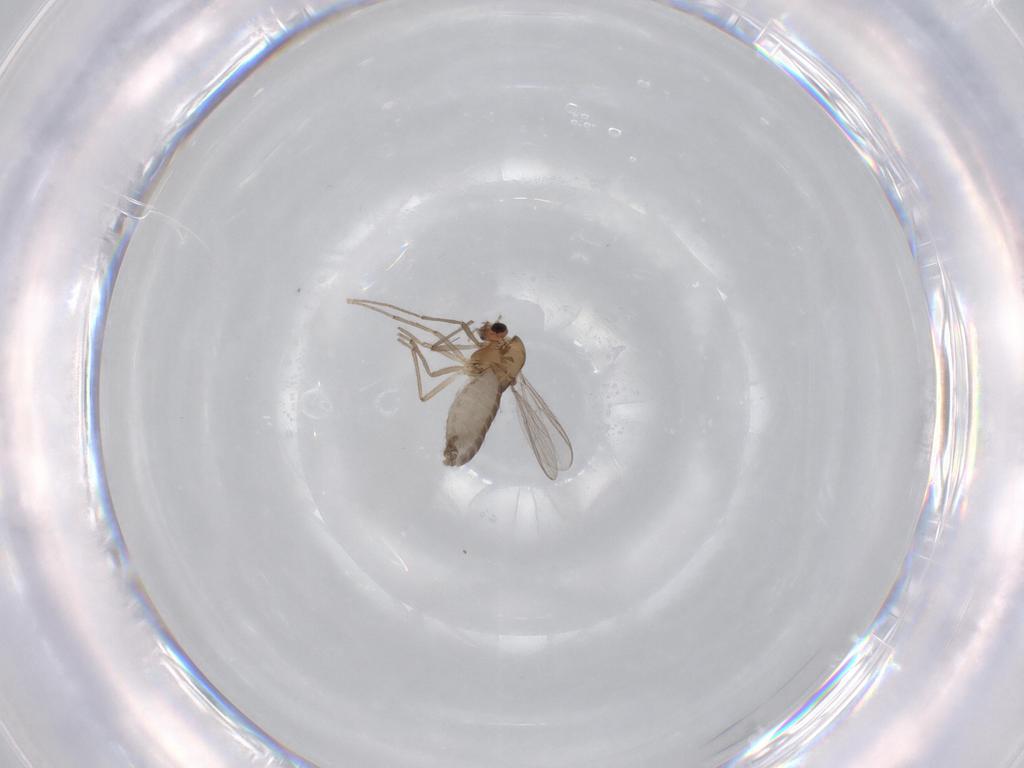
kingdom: Animalia
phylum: Arthropoda
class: Insecta
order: Diptera
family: Chironomidae
